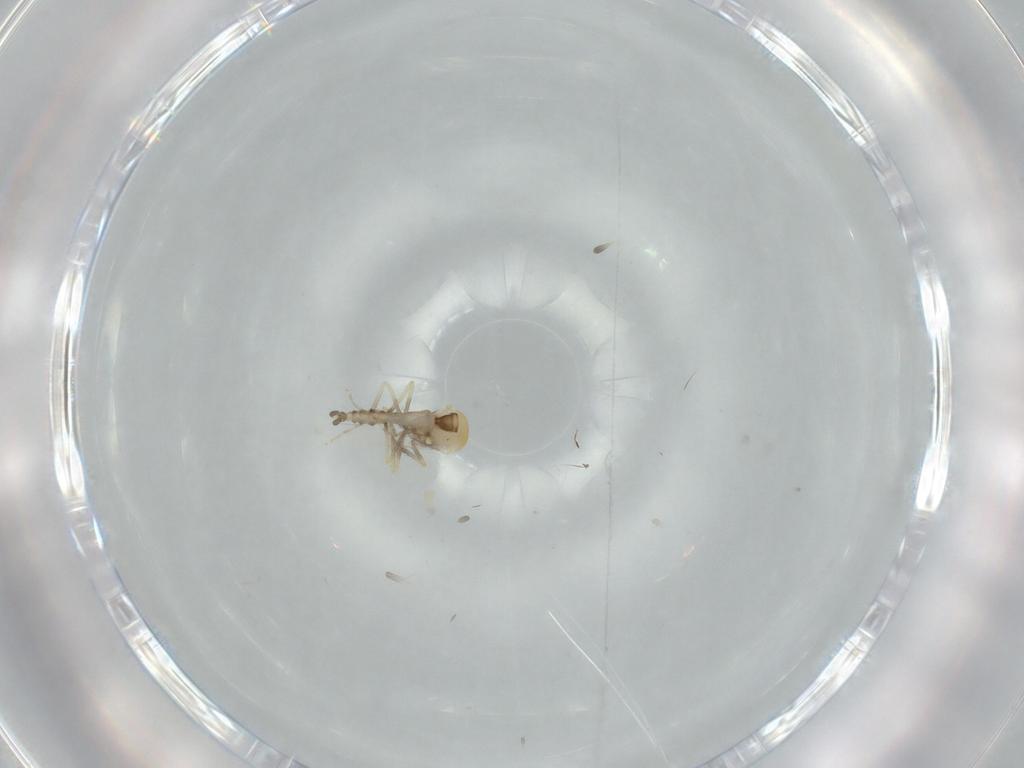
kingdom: Animalia
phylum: Arthropoda
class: Insecta
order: Diptera
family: Ceratopogonidae
